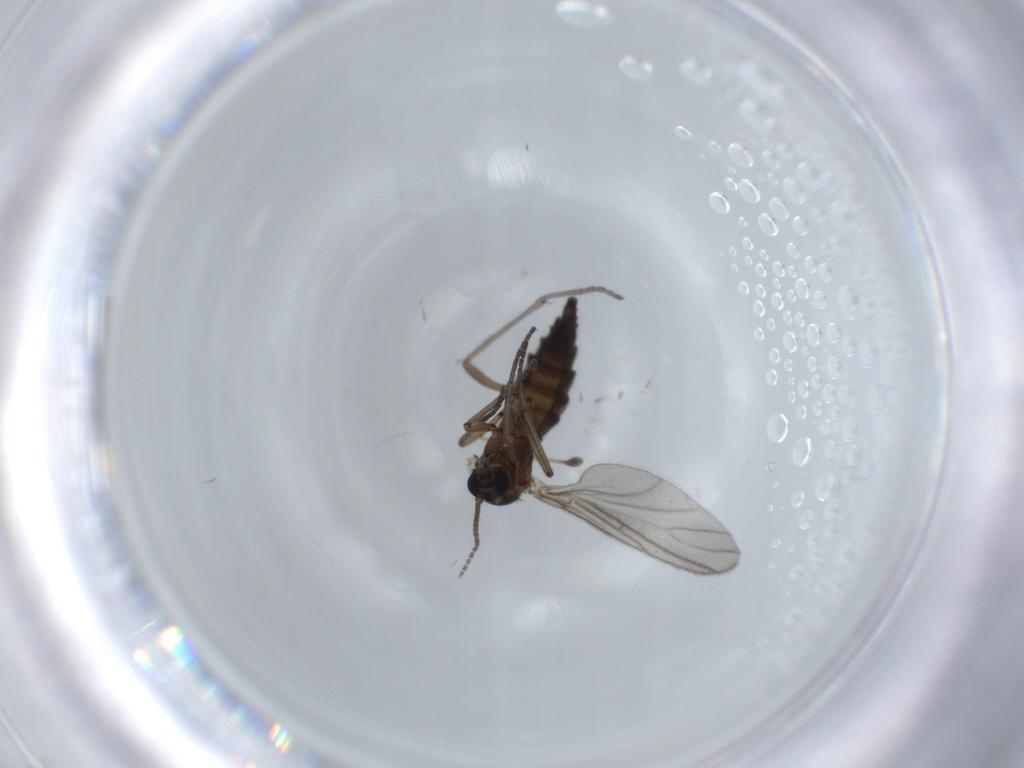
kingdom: Animalia
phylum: Arthropoda
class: Insecta
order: Diptera
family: Sciaridae
